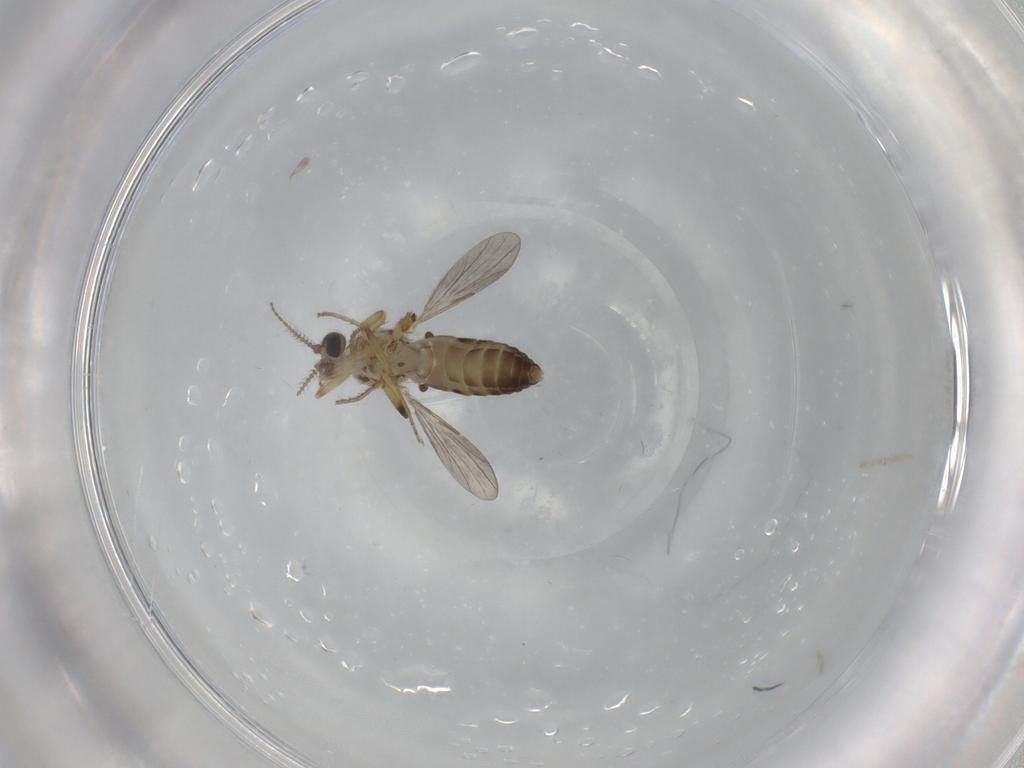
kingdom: Animalia
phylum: Arthropoda
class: Insecta
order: Diptera
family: Ceratopogonidae
